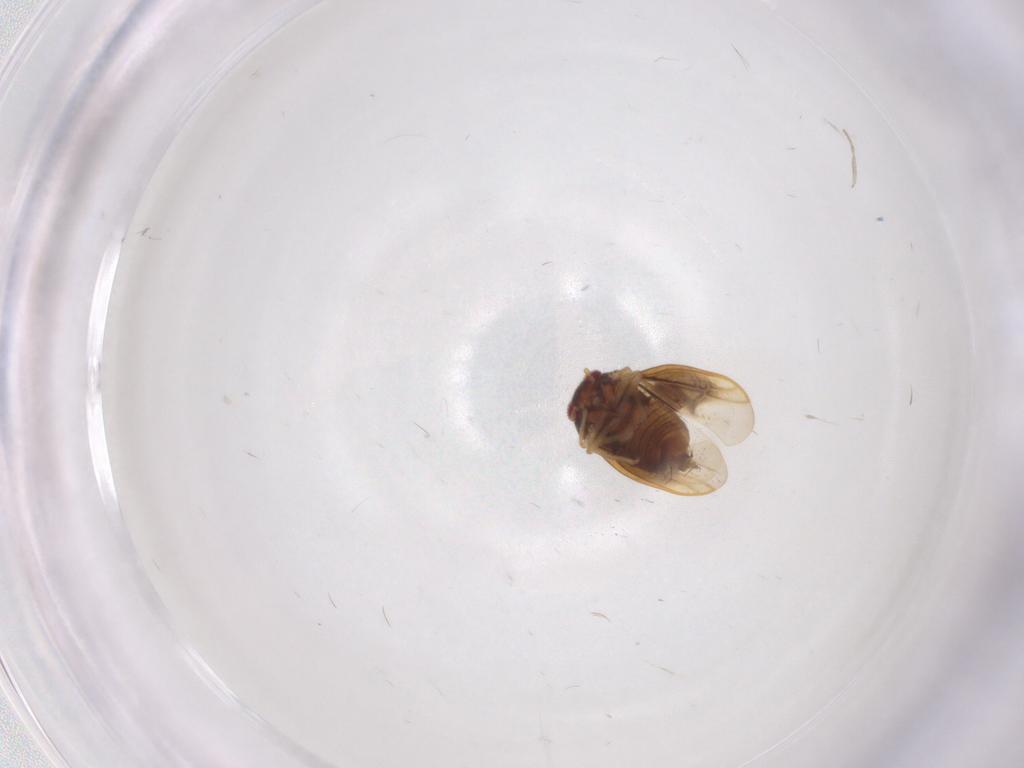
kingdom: Animalia
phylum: Arthropoda
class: Insecta
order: Hemiptera
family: Schizopteridae
